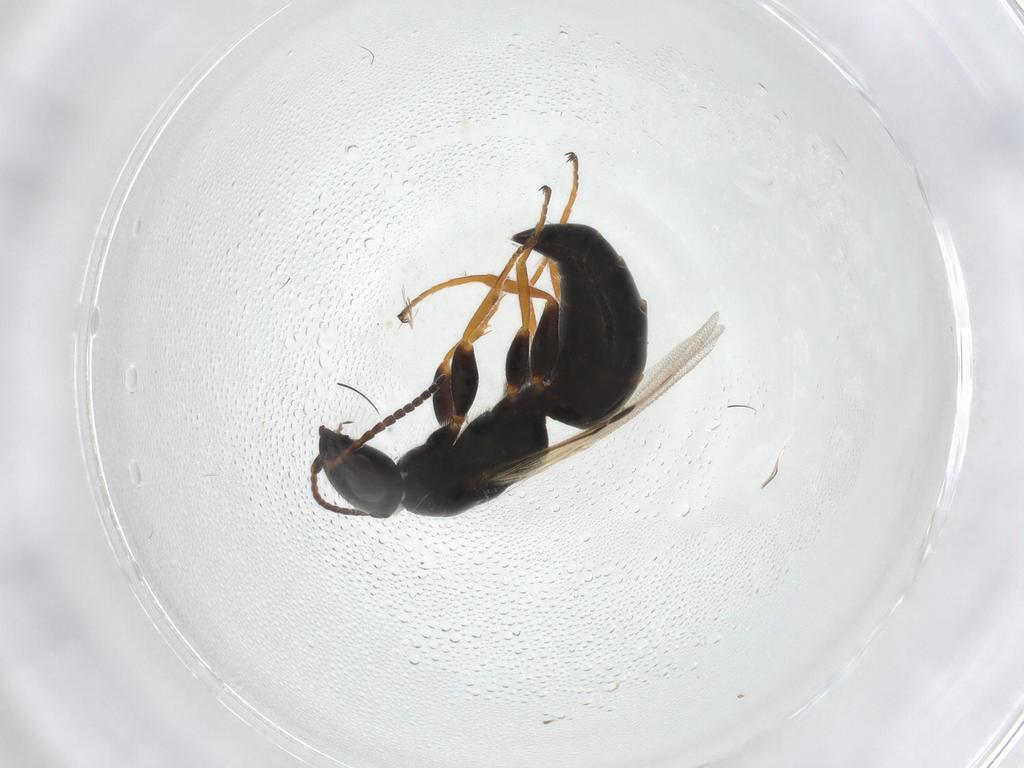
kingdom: Animalia
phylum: Arthropoda
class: Insecta
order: Hymenoptera
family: Bethylidae
